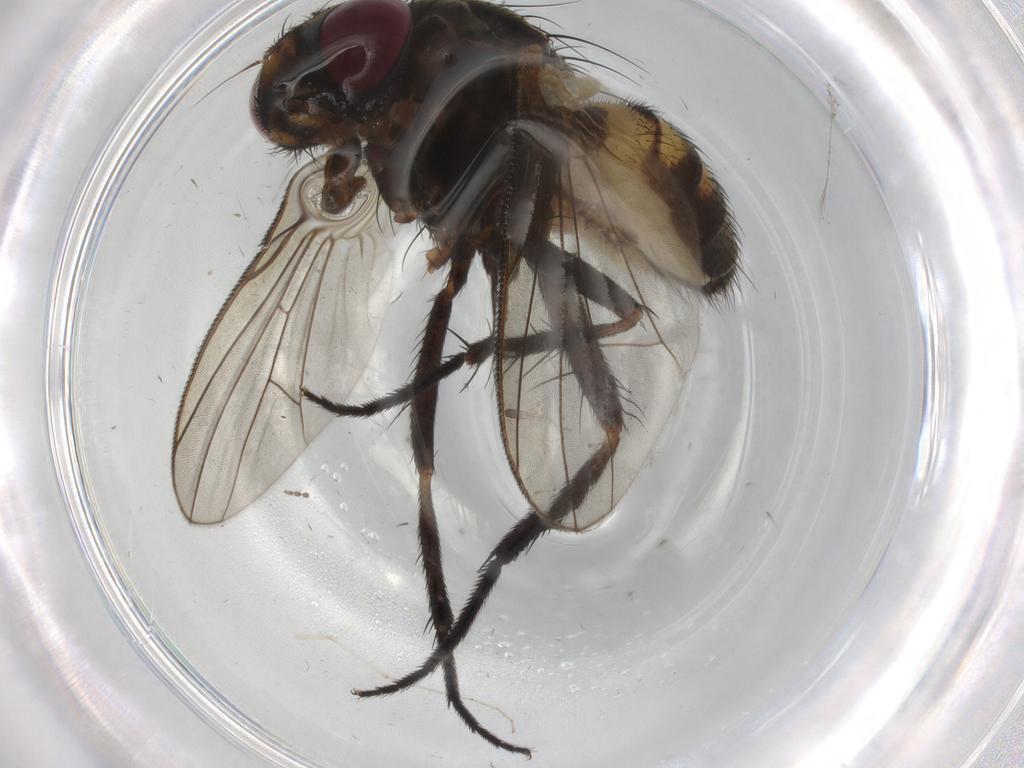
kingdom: Animalia
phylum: Arthropoda
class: Insecta
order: Diptera
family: Fannia
